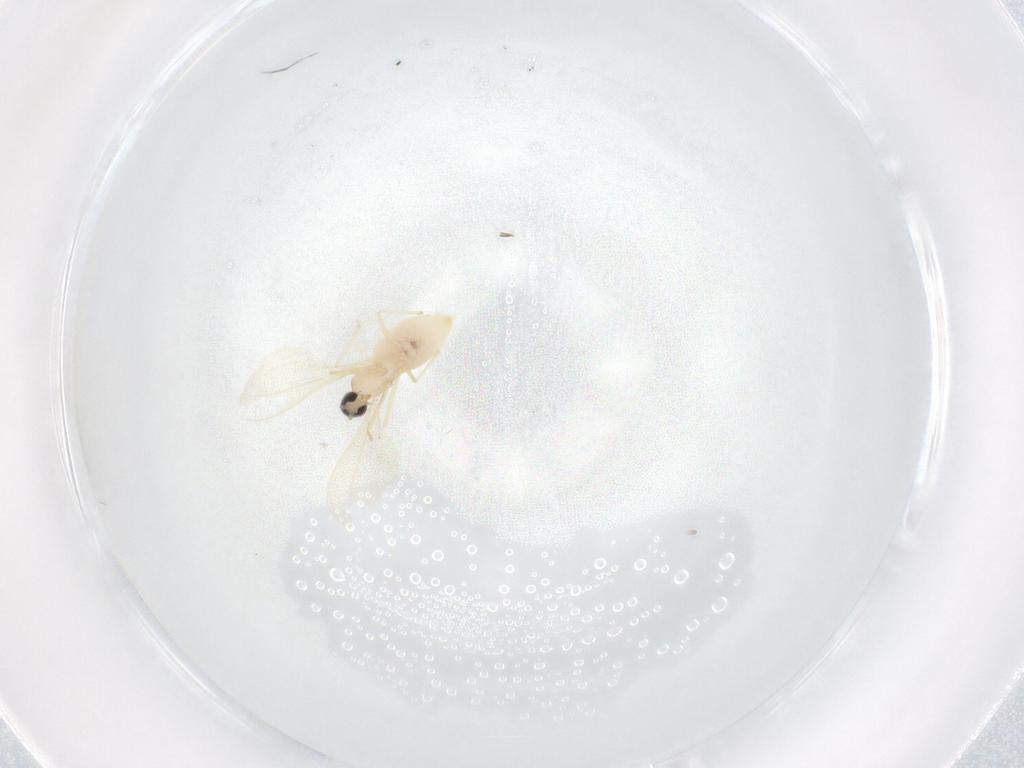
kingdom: Animalia
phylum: Arthropoda
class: Insecta
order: Diptera
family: Cecidomyiidae
